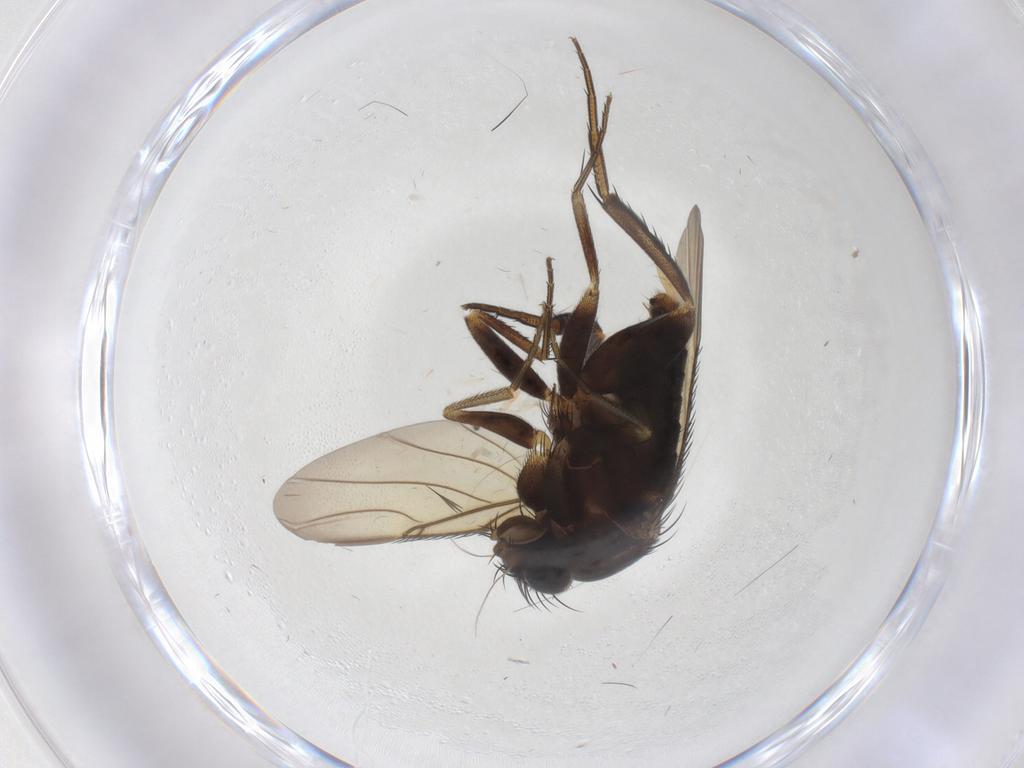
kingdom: Animalia
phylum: Arthropoda
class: Insecta
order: Diptera
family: Phoridae
